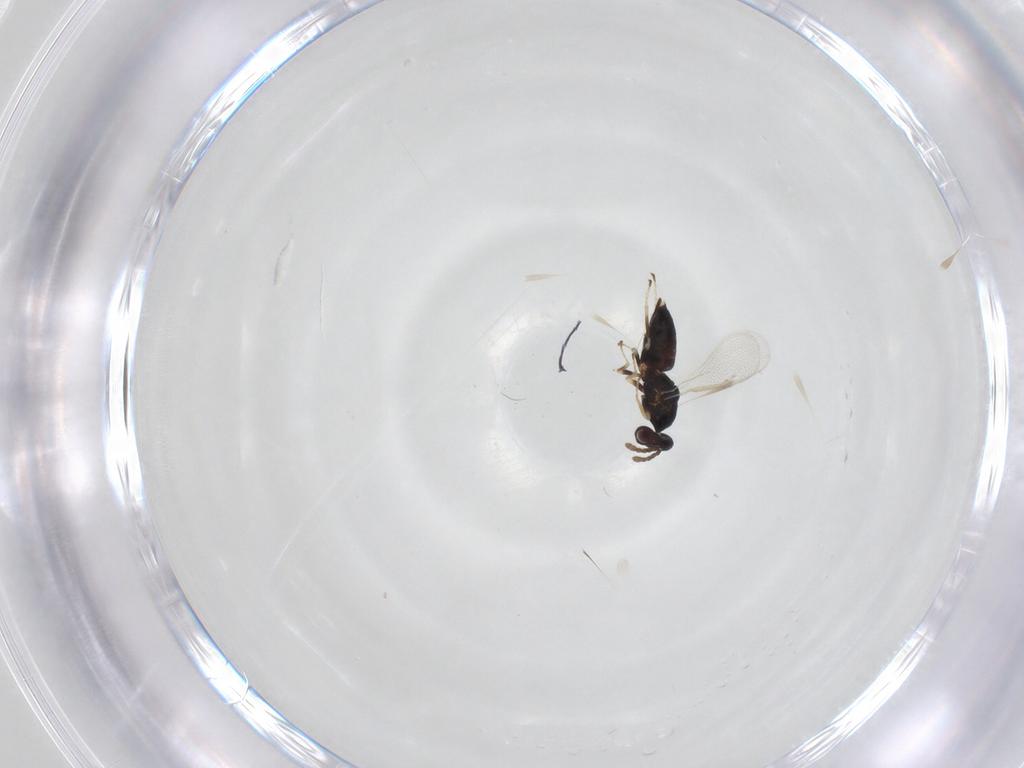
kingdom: Animalia
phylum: Arthropoda
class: Insecta
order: Hymenoptera
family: Eulophidae
